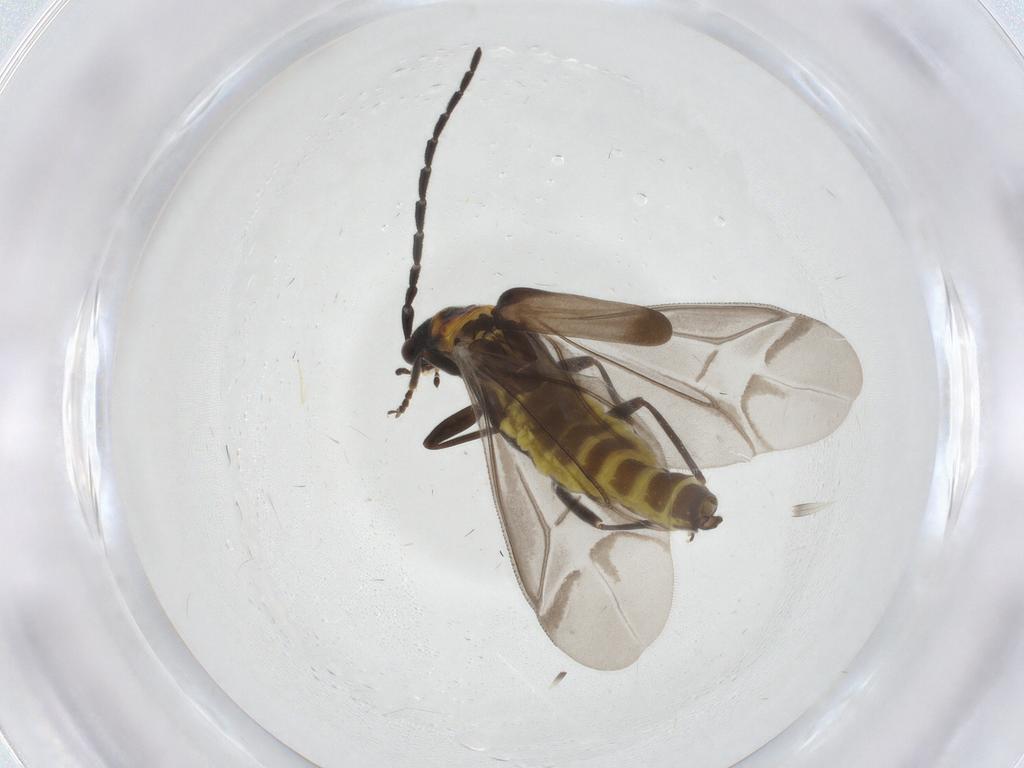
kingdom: Animalia
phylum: Arthropoda
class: Insecta
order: Coleoptera
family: Cantharidae
